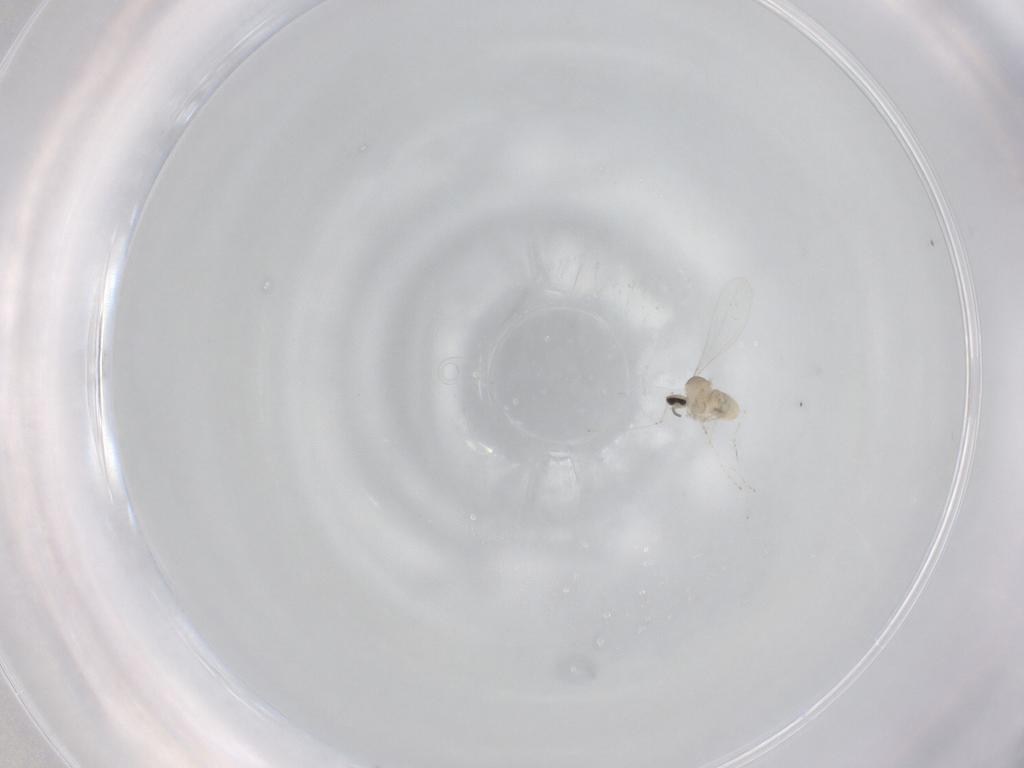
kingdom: Animalia
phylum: Arthropoda
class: Insecta
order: Diptera
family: Cecidomyiidae
